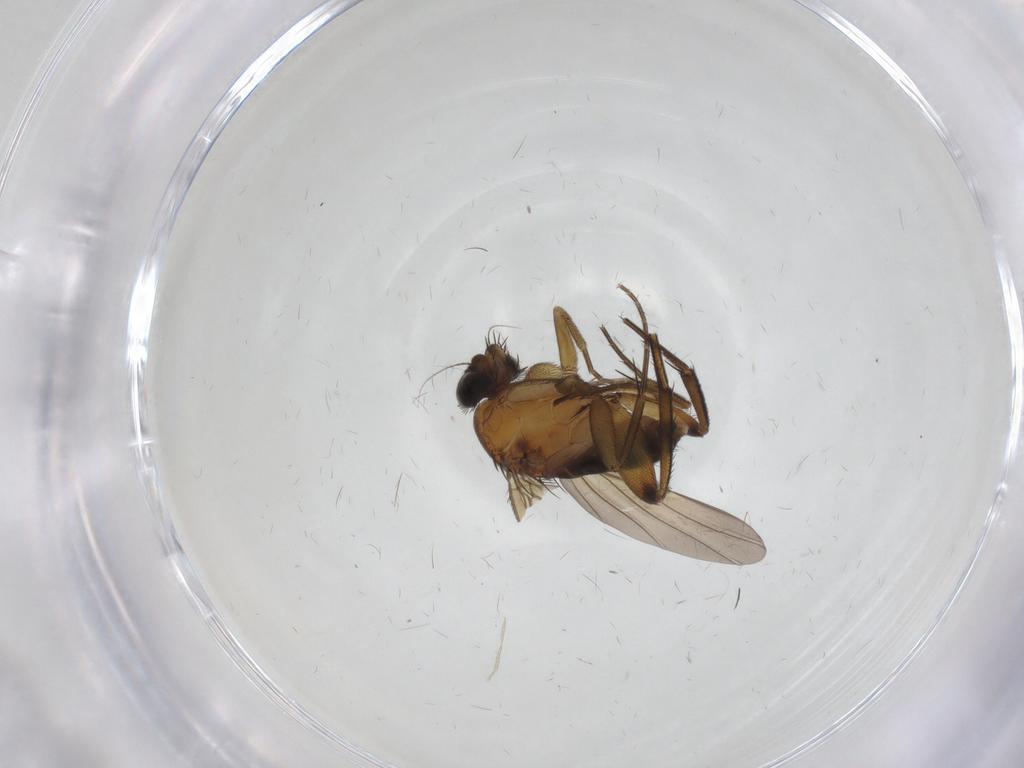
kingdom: Animalia
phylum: Arthropoda
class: Insecta
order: Diptera
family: Phoridae
